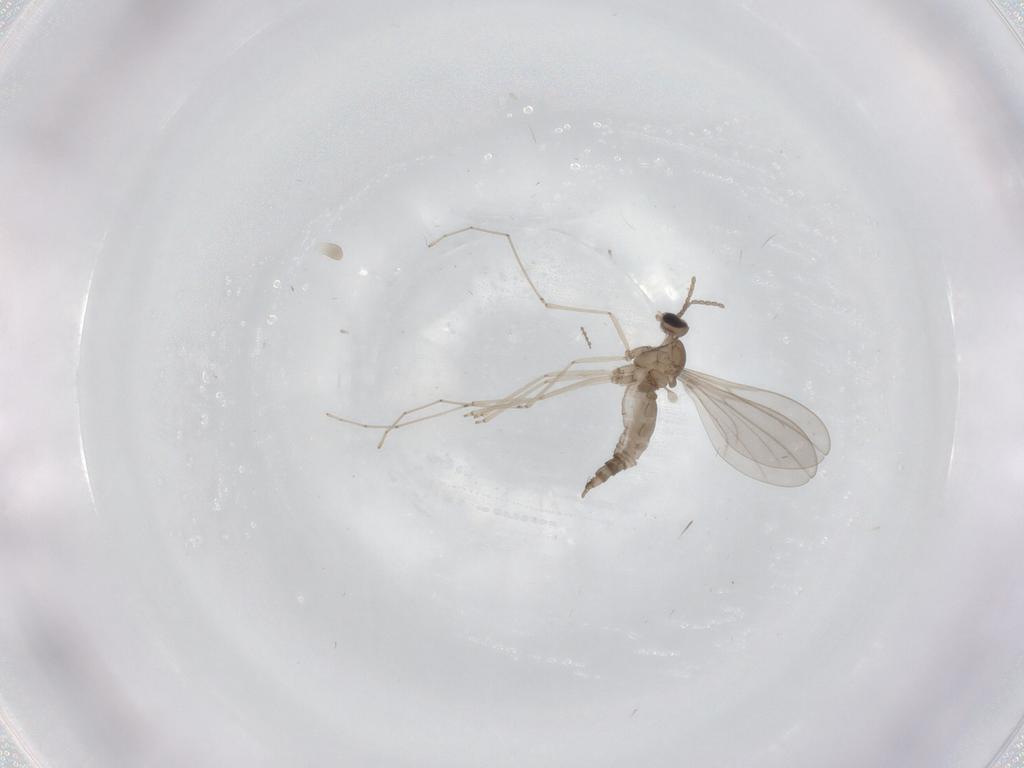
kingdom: Animalia
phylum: Arthropoda
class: Insecta
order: Diptera
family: Cecidomyiidae
